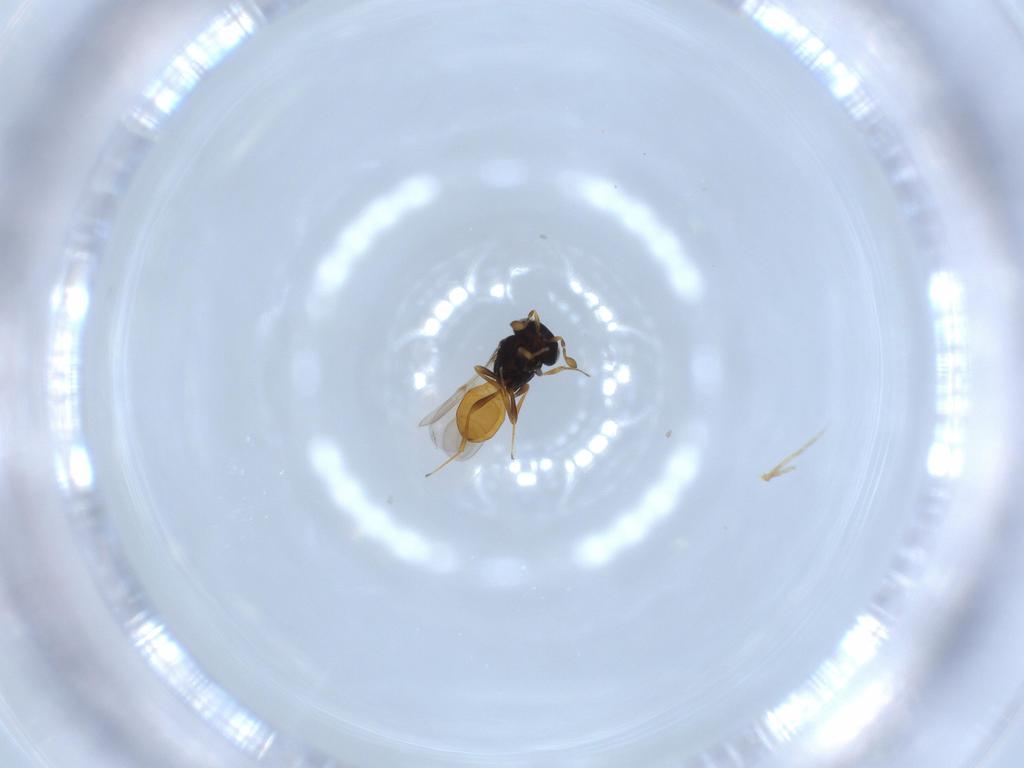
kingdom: Animalia
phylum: Arthropoda
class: Insecta
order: Hymenoptera
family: Scelionidae
